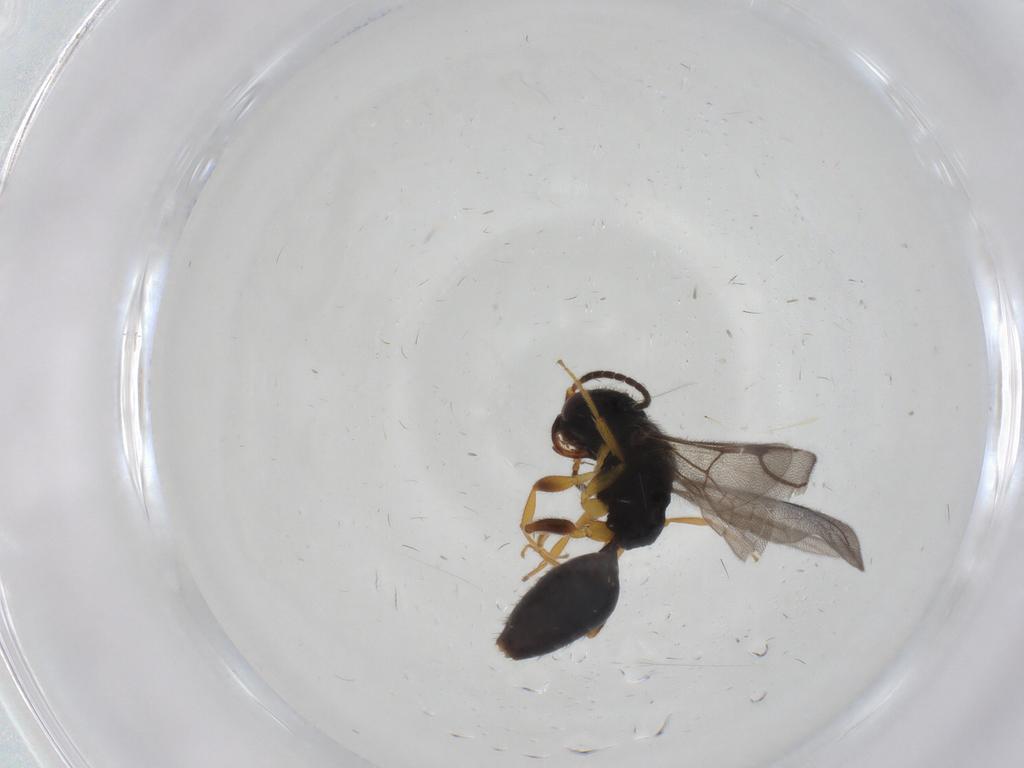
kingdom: Animalia
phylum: Arthropoda
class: Insecta
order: Hymenoptera
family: Bethylidae
